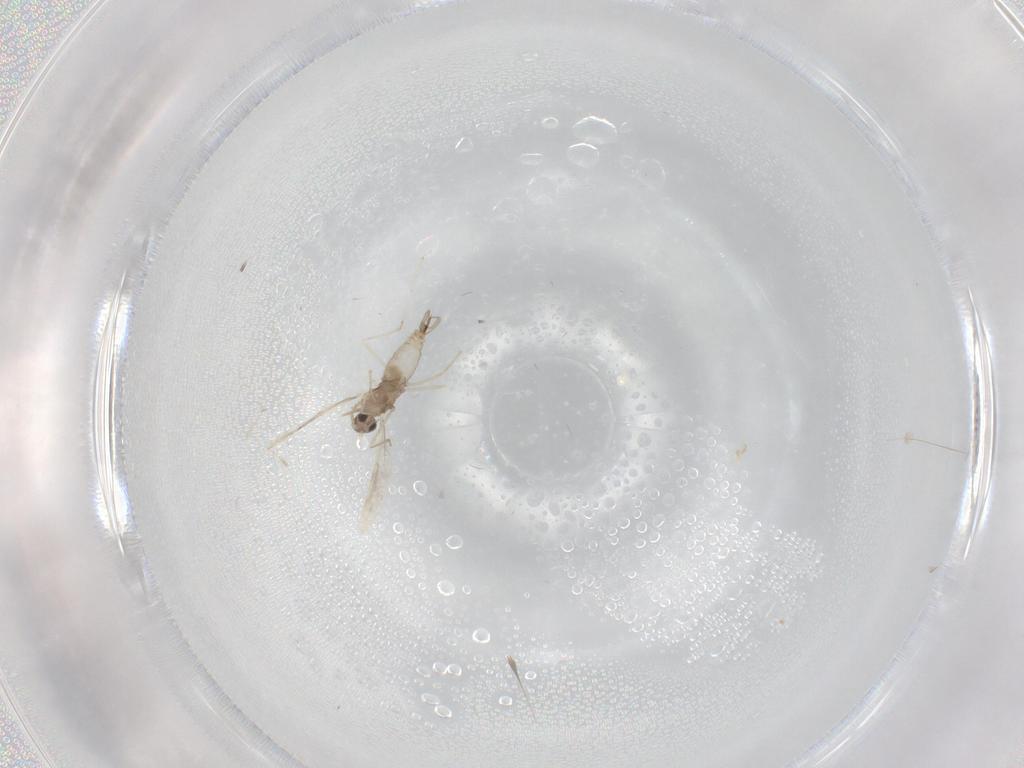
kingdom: Animalia
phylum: Arthropoda
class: Insecta
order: Diptera
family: Cecidomyiidae
